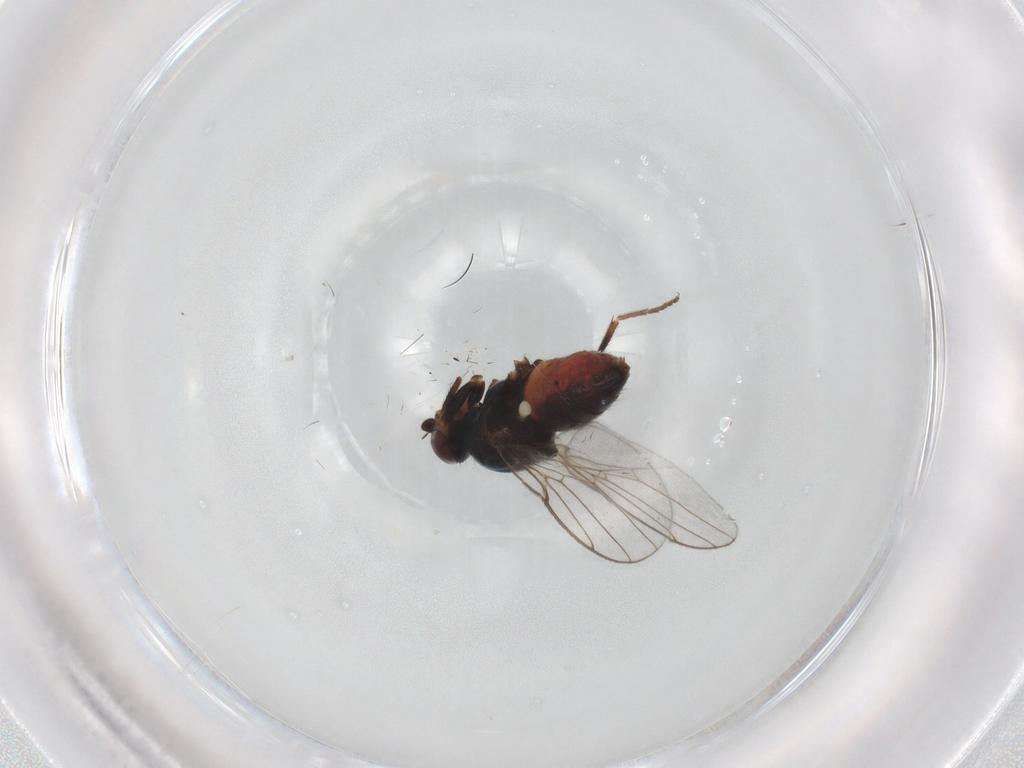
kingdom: Animalia
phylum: Arthropoda
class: Insecta
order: Diptera
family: Chloropidae
